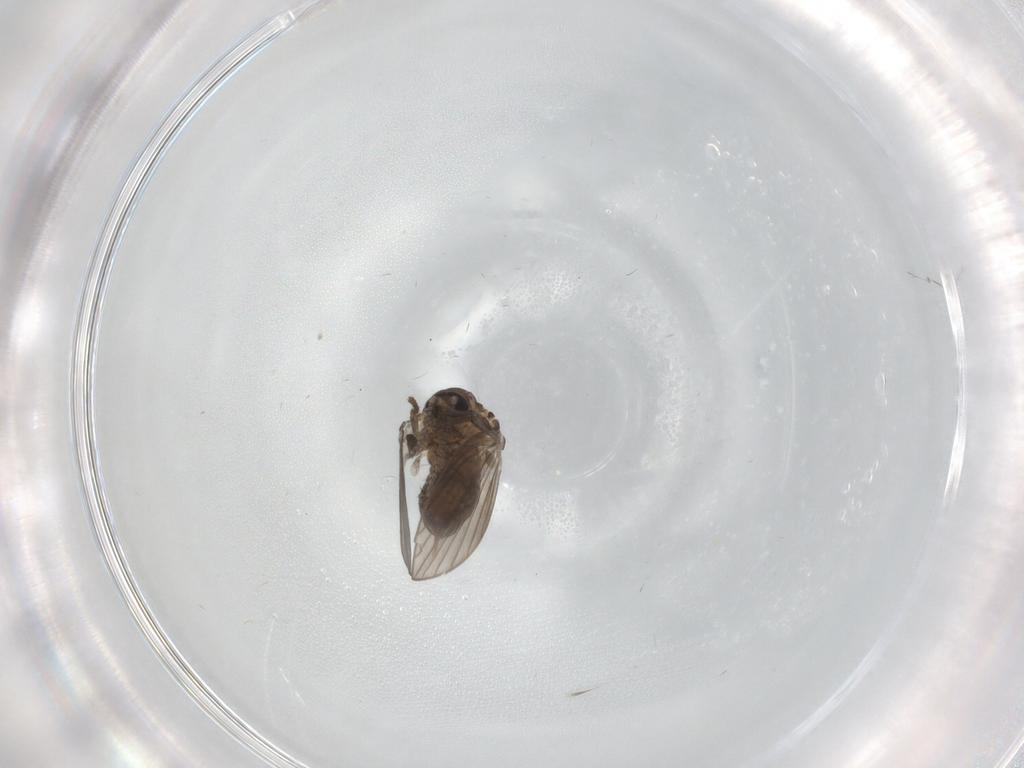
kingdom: Animalia
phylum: Arthropoda
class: Insecta
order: Diptera
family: Psychodidae
